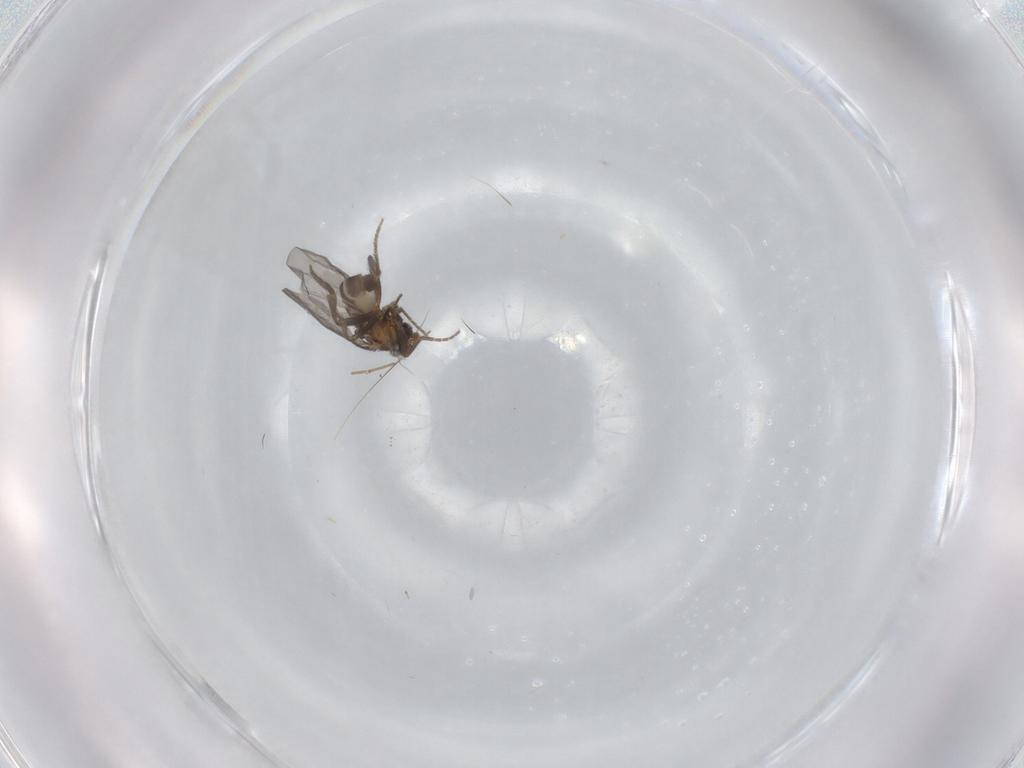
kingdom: Animalia
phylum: Arthropoda
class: Insecta
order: Diptera
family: Cecidomyiidae
